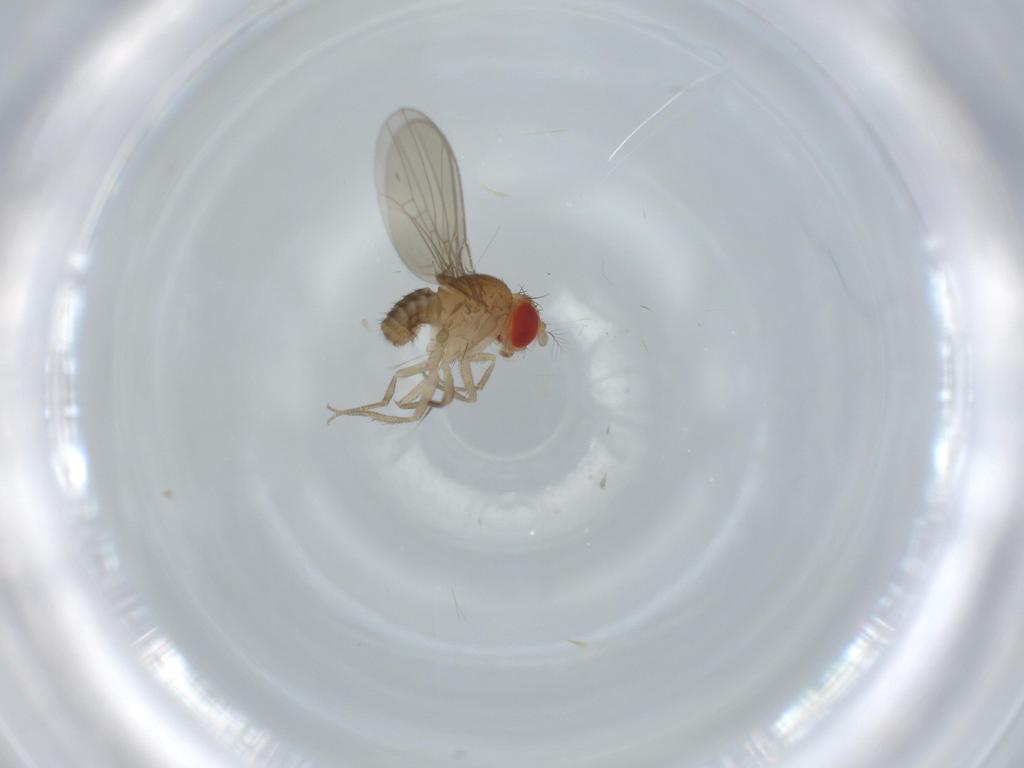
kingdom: Animalia
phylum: Arthropoda
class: Insecta
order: Diptera
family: Drosophilidae
